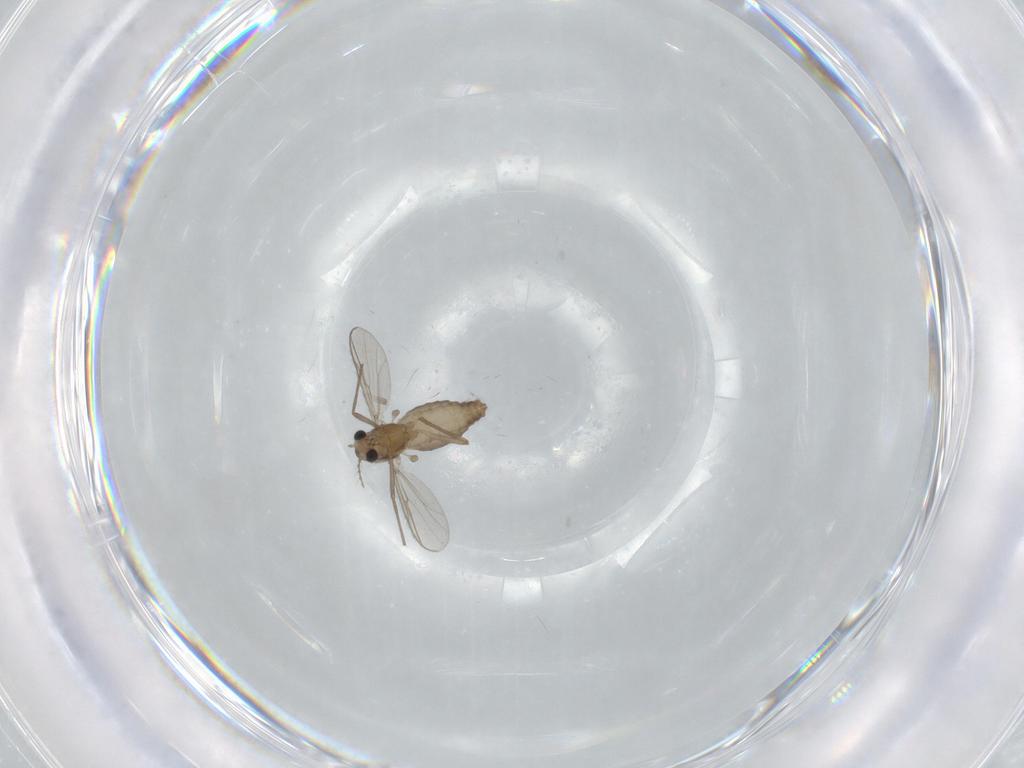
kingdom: Animalia
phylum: Arthropoda
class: Insecta
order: Diptera
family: Chironomidae
